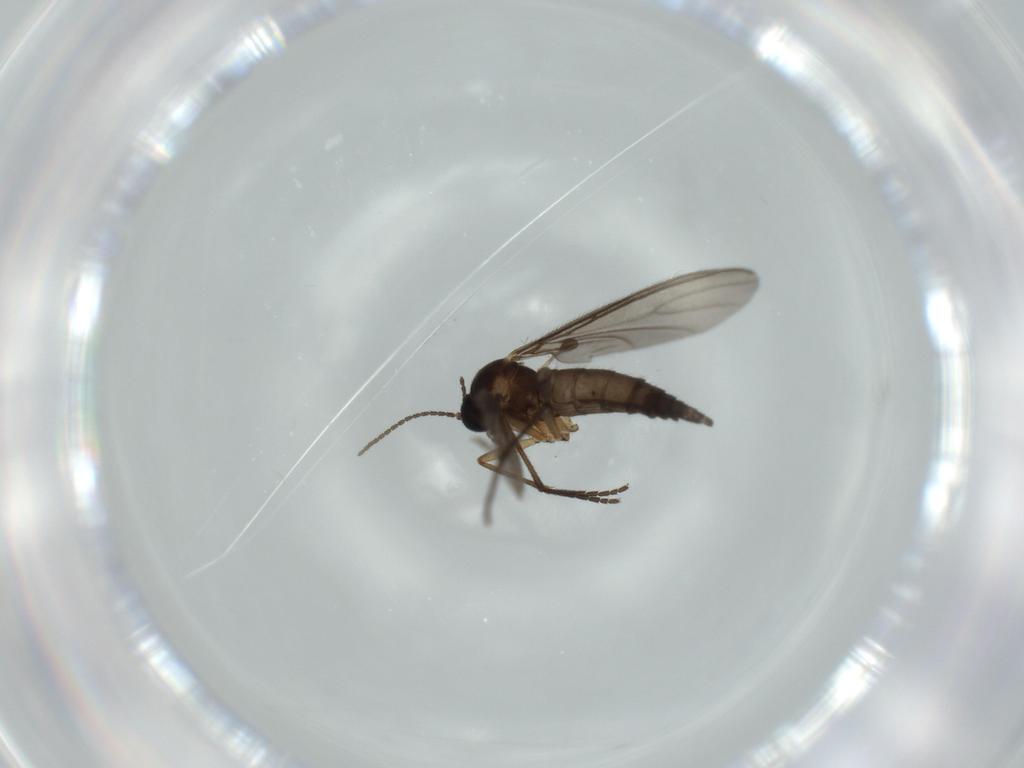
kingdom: Animalia
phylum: Arthropoda
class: Insecta
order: Diptera
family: Sciaridae
